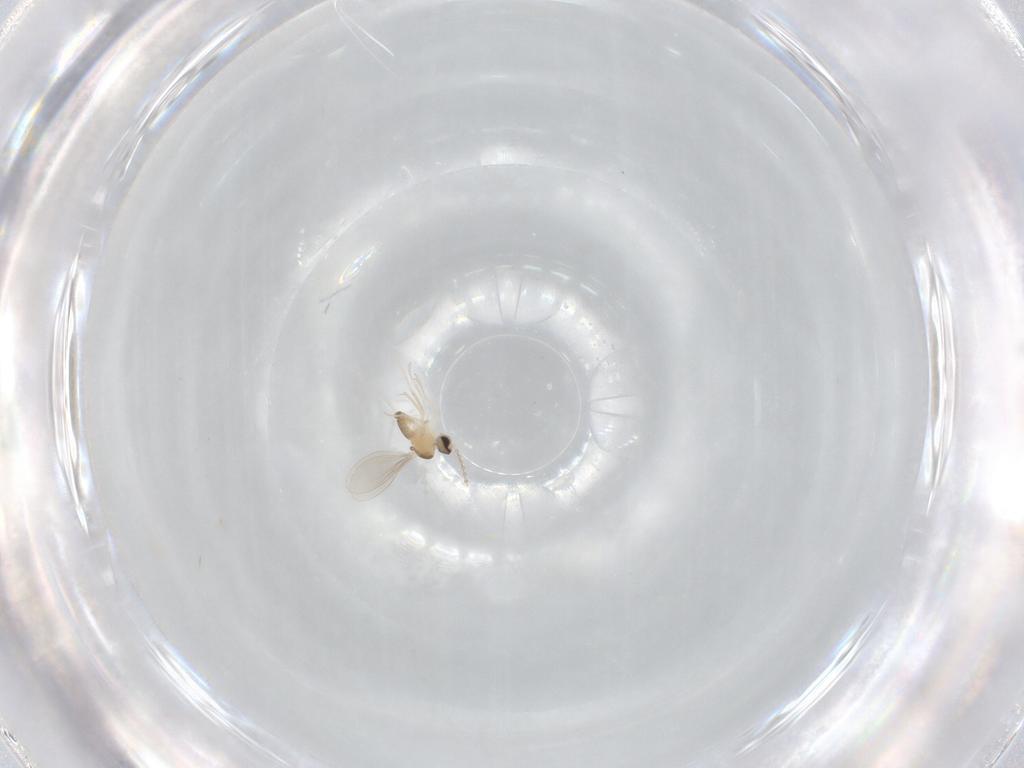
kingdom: Animalia
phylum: Arthropoda
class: Insecta
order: Diptera
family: Cecidomyiidae
